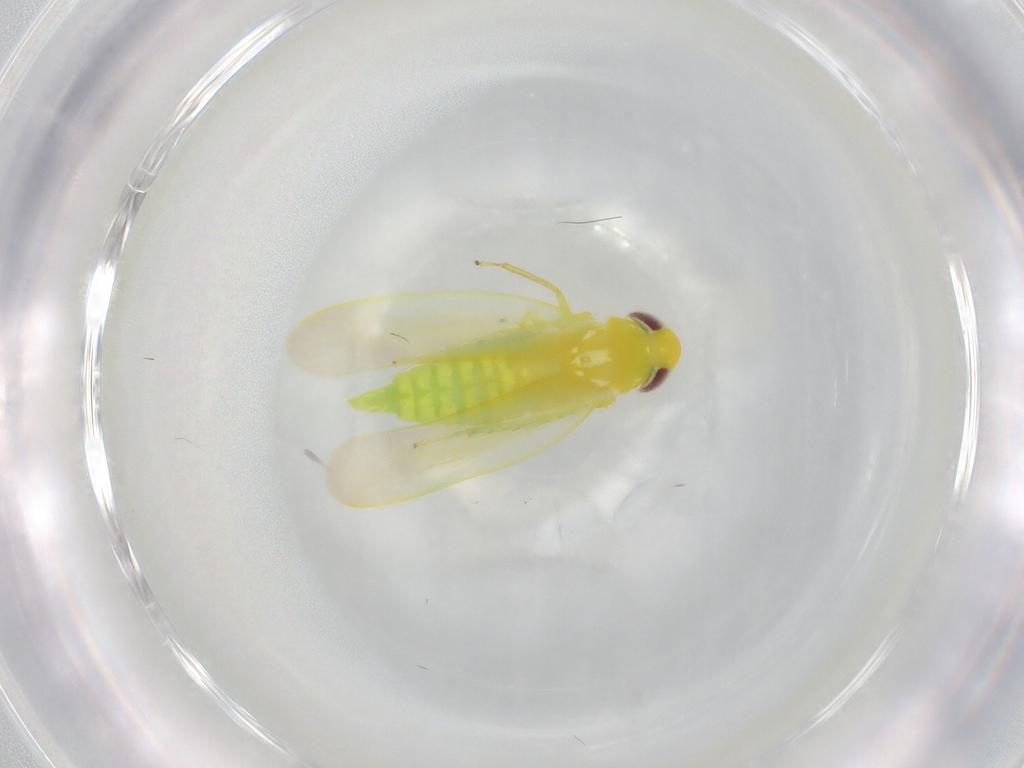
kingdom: Animalia
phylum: Arthropoda
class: Insecta
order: Hemiptera
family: Cicadellidae
